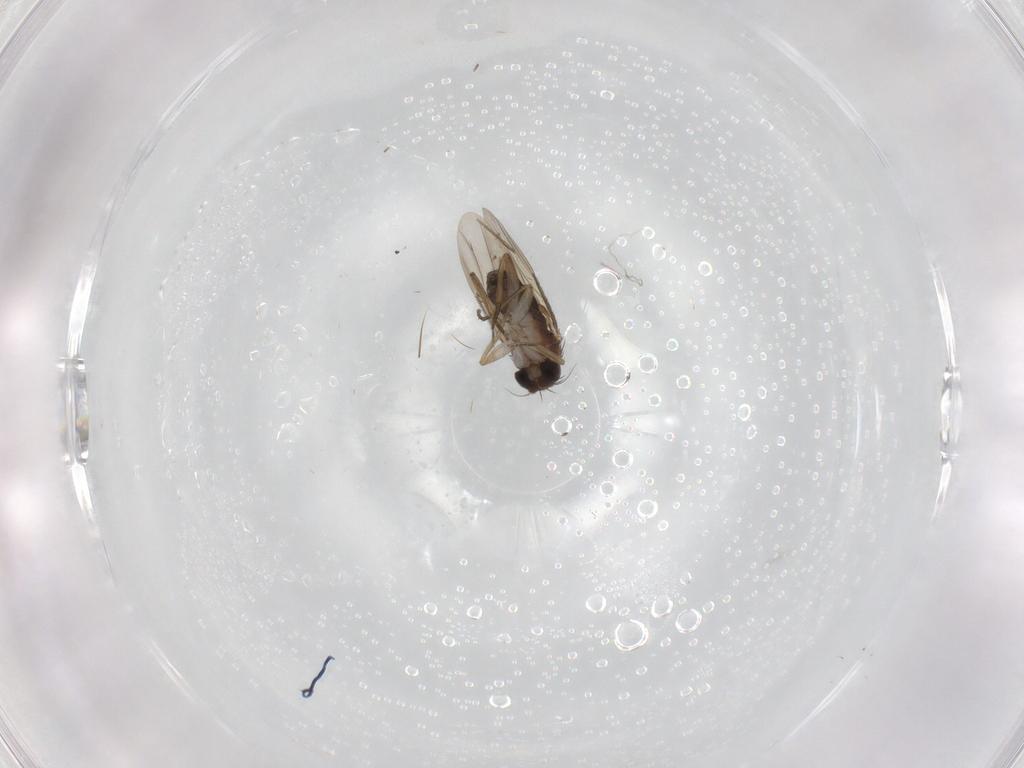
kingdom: Animalia
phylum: Arthropoda
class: Insecta
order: Diptera
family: Phoridae
